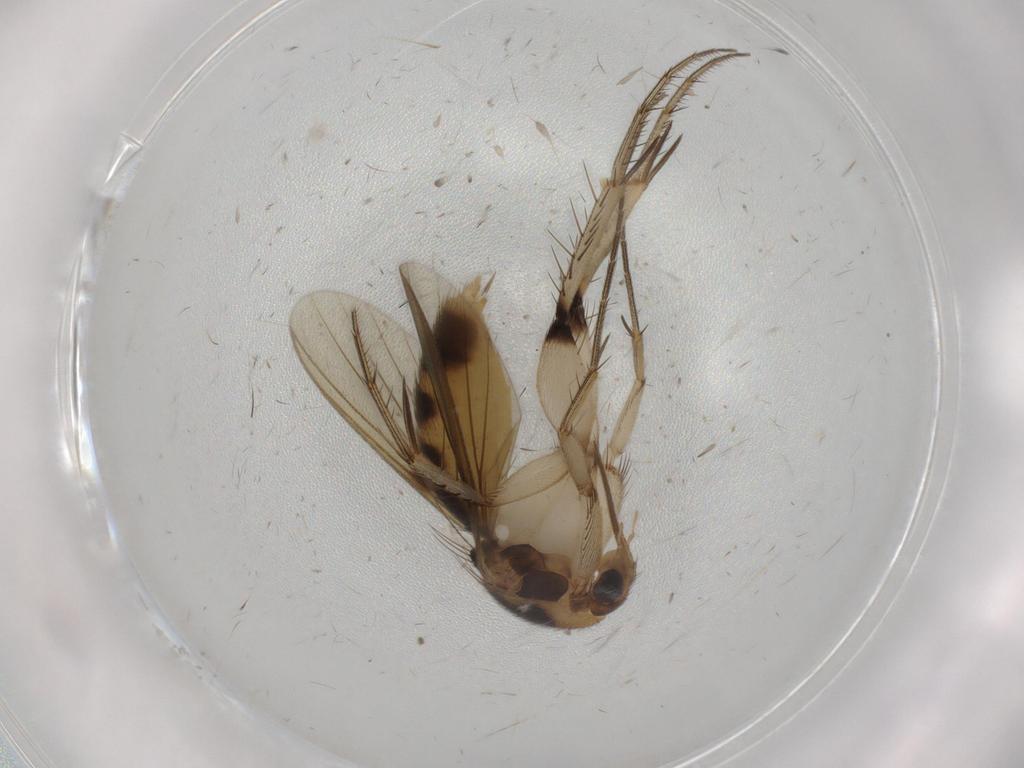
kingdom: Animalia
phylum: Arthropoda
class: Insecta
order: Diptera
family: Mycetophilidae
